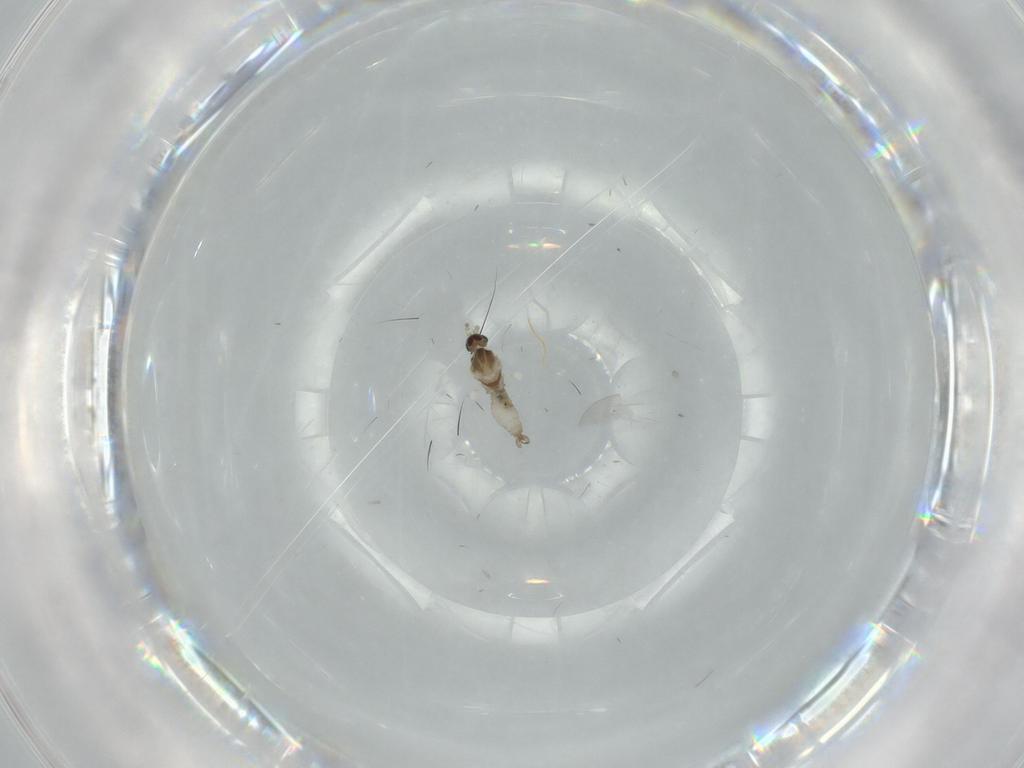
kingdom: Animalia
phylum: Arthropoda
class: Insecta
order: Diptera
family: Cecidomyiidae
